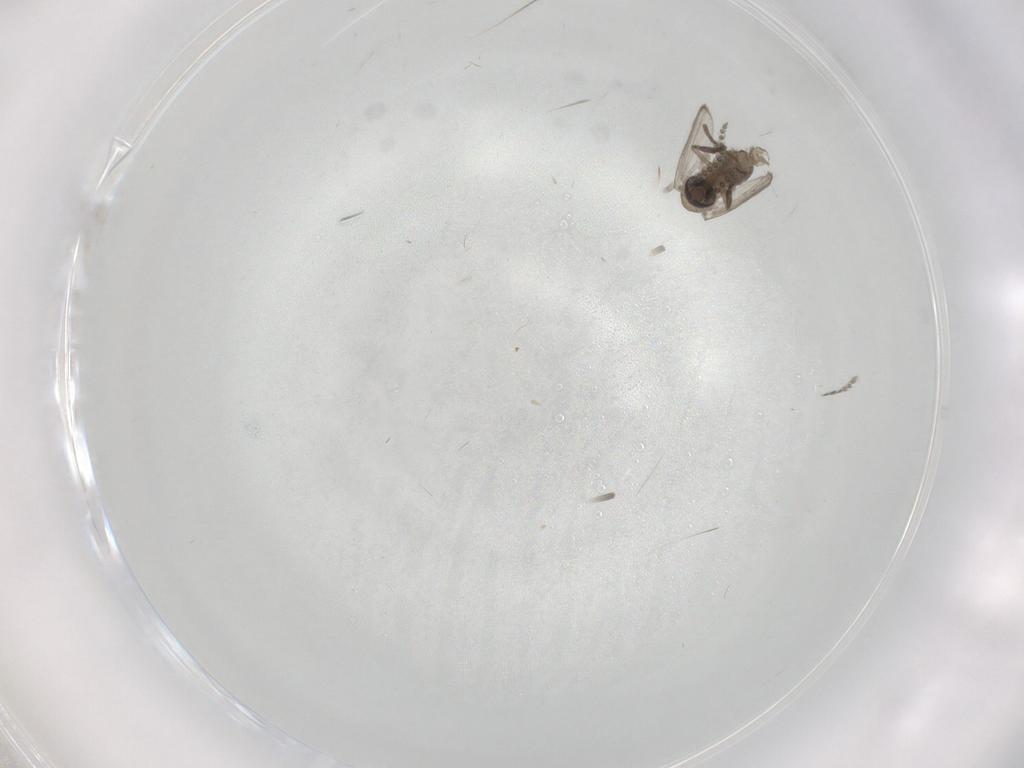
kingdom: Animalia
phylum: Arthropoda
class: Insecta
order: Diptera
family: Psychodidae
